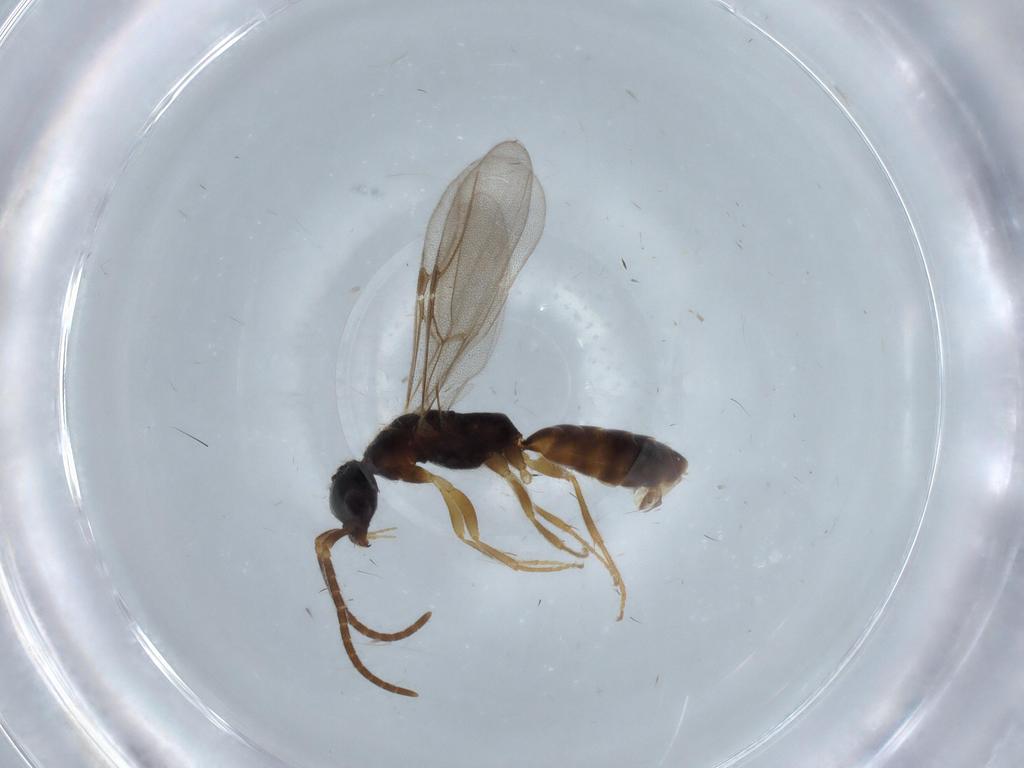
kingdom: Animalia
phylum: Arthropoda
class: Insecta
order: Hymenoptera
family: Bethylidae
